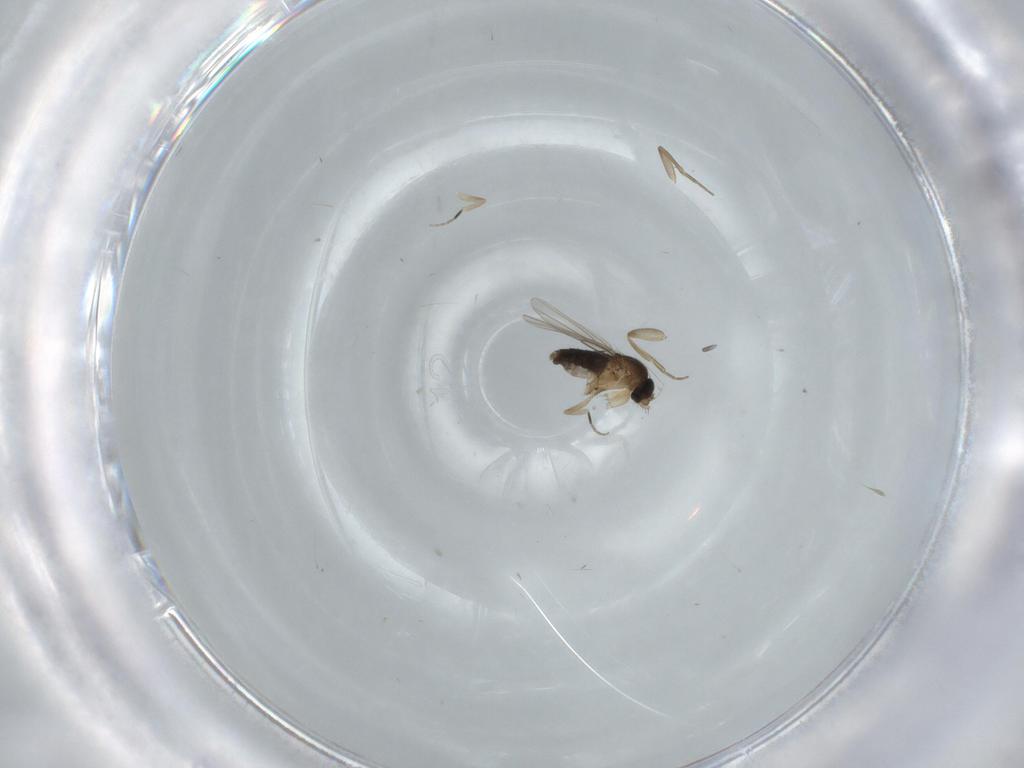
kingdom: Animalia
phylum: Arthropoda
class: Insecta
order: Diptera
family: Phoridae
